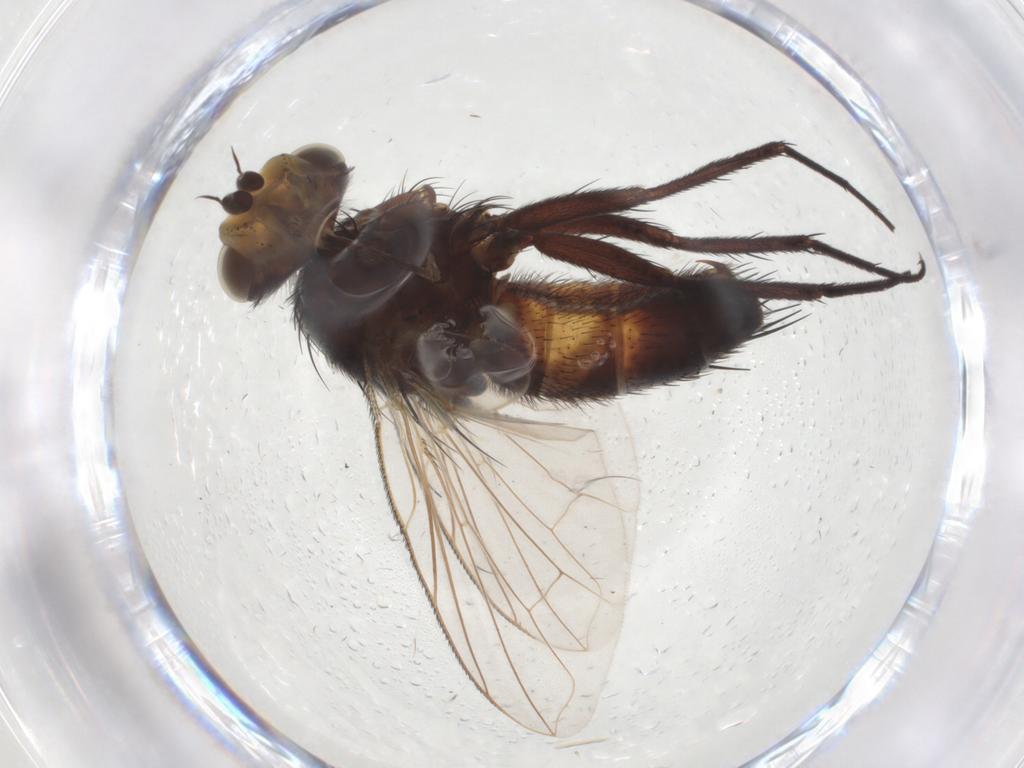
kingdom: Animalia
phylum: Arthropoda
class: Insecta
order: Diptera
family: Tachinidae
